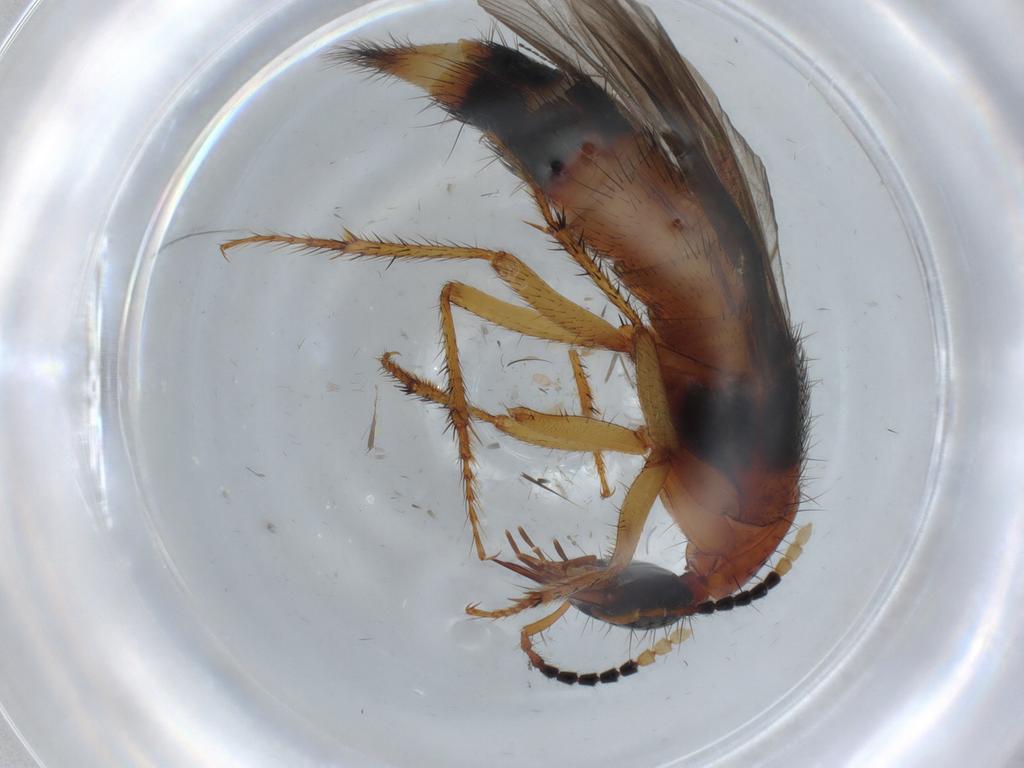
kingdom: Animalia
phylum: Arthropoda
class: Insecta
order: Coleoptera
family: Staphylinidae
